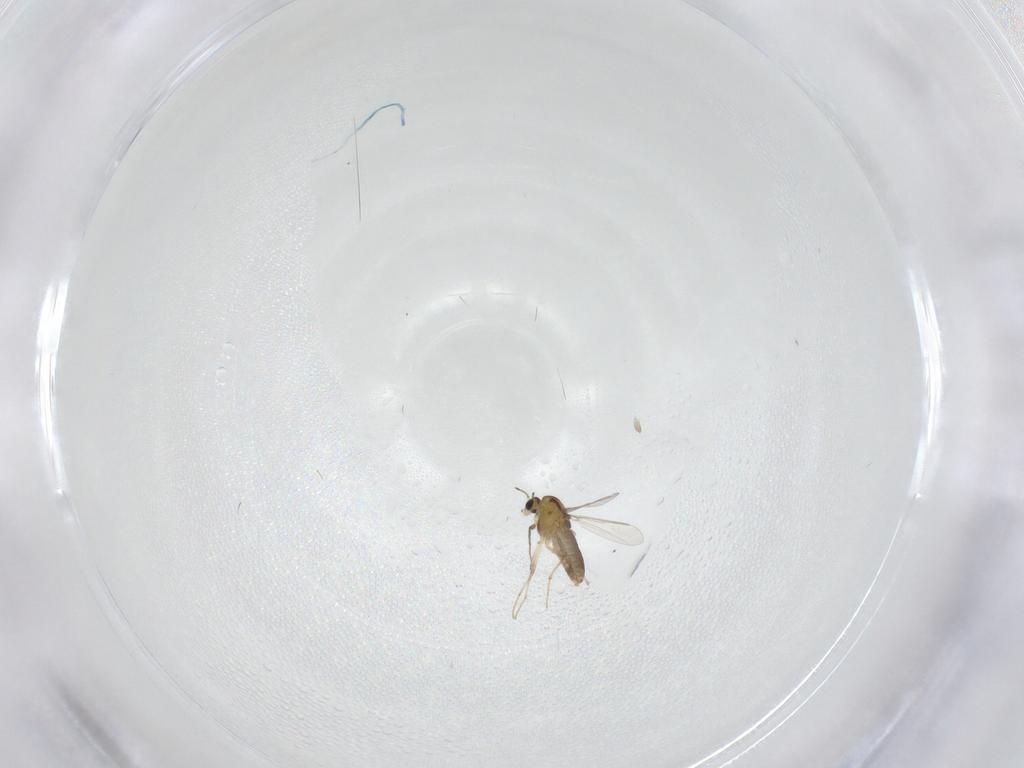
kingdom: Animalia
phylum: Arthropoda
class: Insecta
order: Diptera
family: Chironomidae
